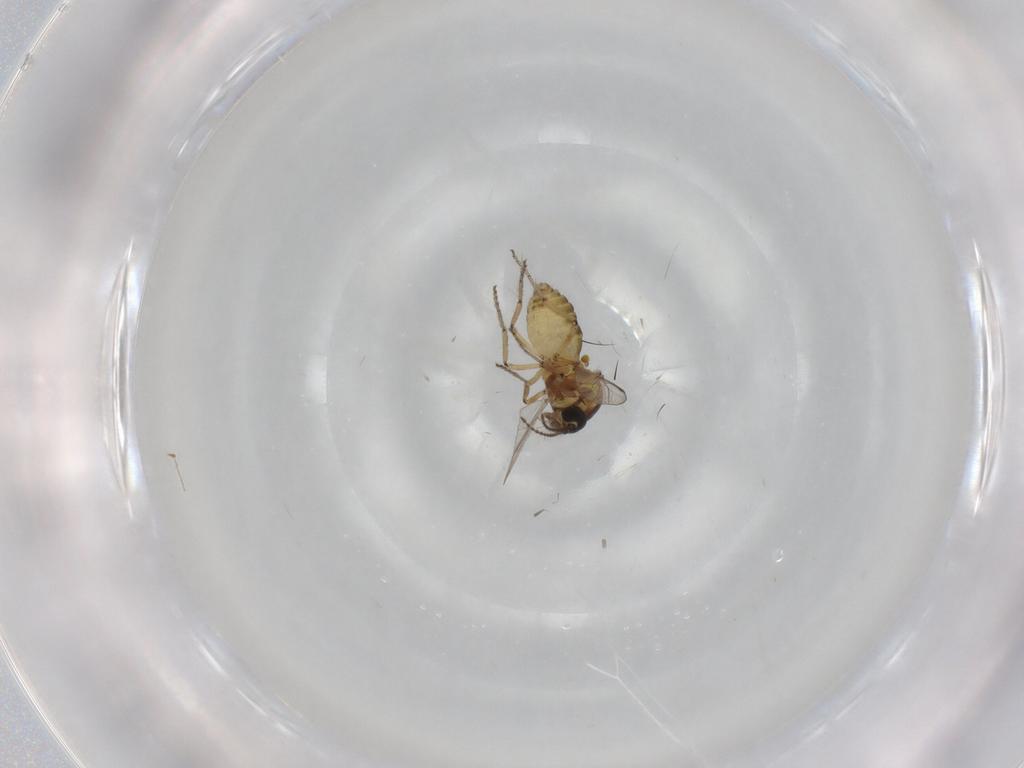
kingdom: Animalia
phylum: Arthropoda
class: Insecta
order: Diptera
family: Ceratopogonidae
